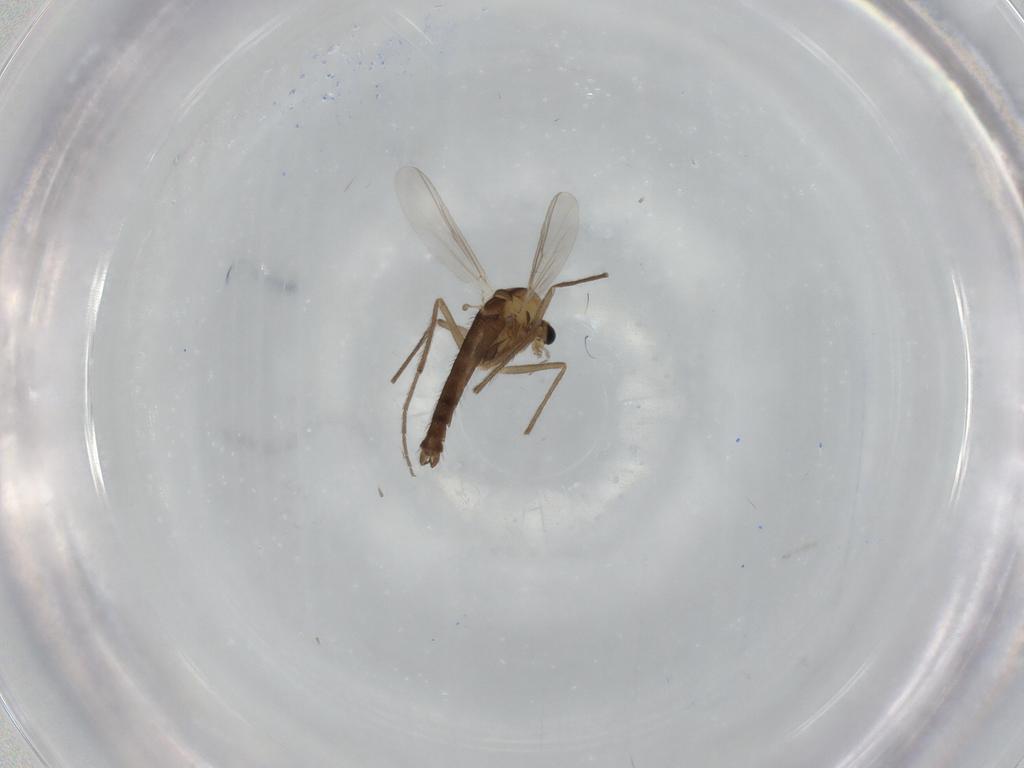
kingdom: Animalia
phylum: Arthropoda
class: Insecta
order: Diptera
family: Chironomidae
